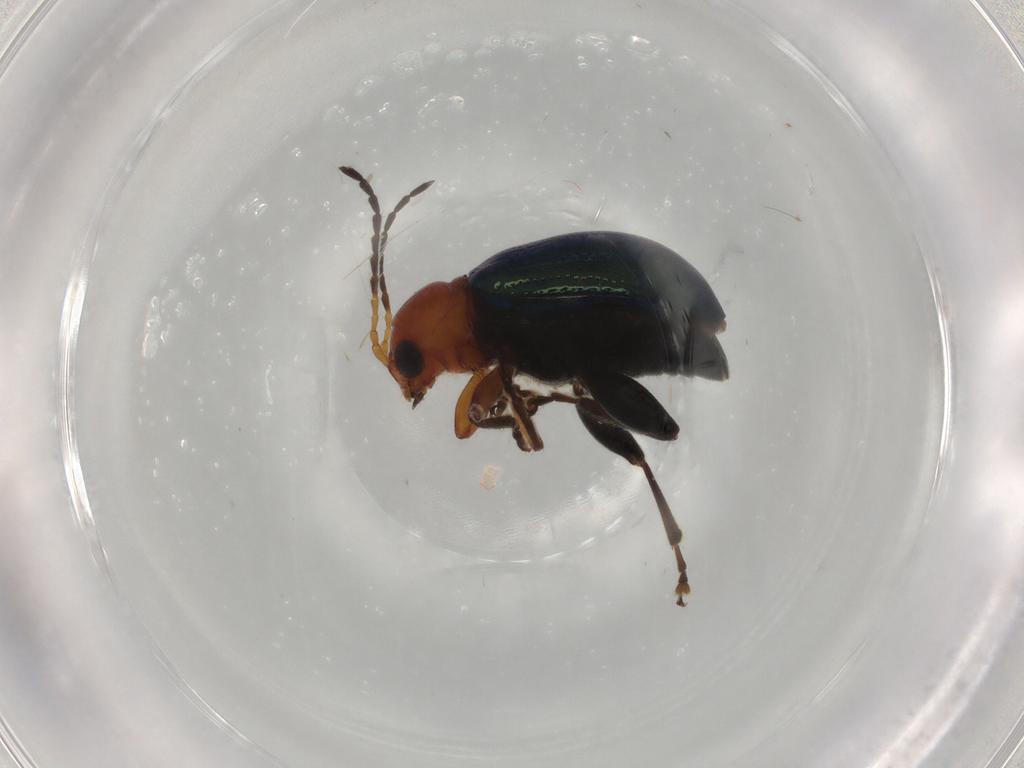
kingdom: Animalia
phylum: Arthropoda
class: Insecta
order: Coleoptera
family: Chrysomelidae
